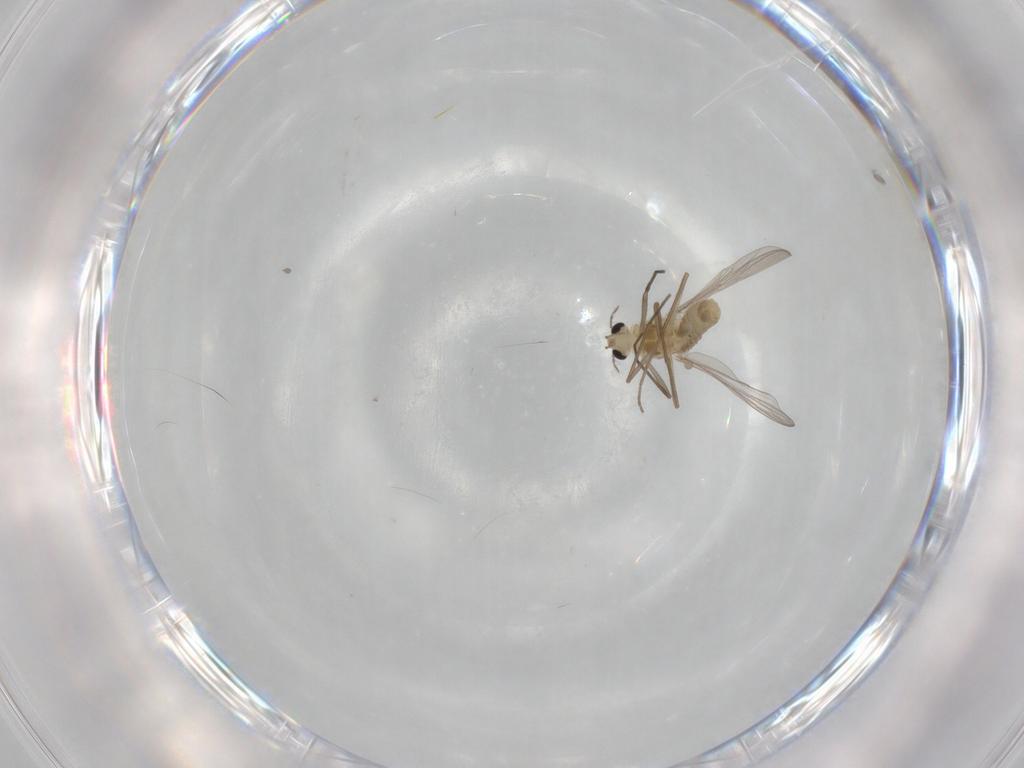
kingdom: Animalia
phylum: Arthropoda
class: Insecta
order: Diptera
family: Chironomidae
